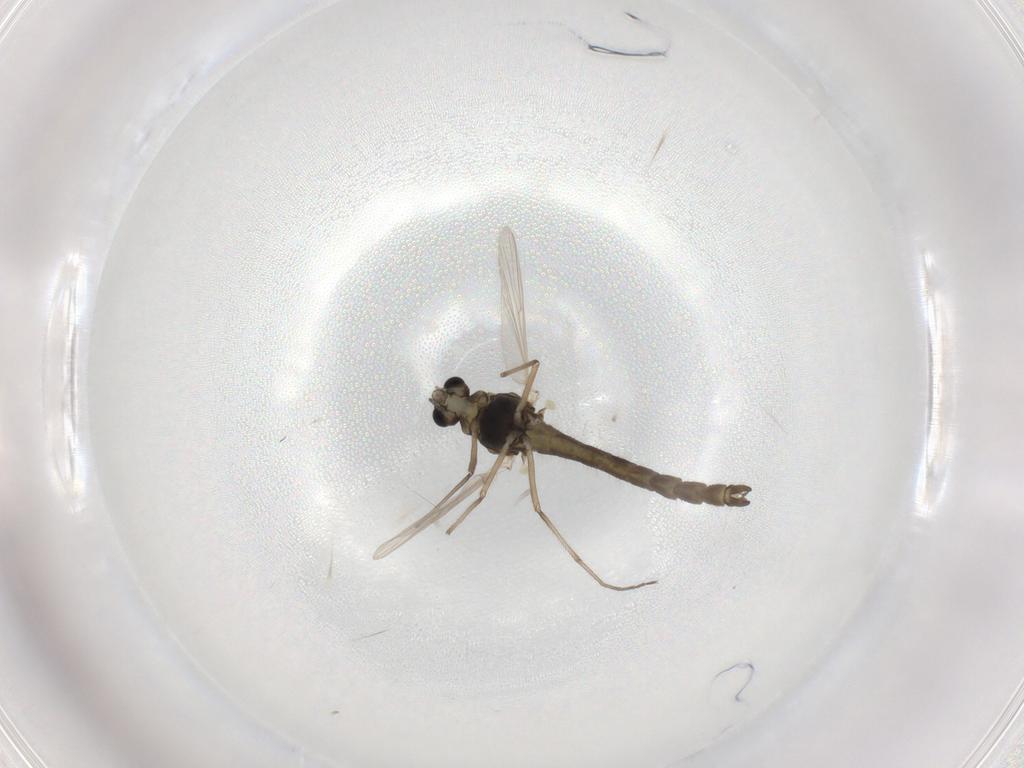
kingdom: Animalia
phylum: Arthropoda
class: Insecta
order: Diptera
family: Chironomidae
